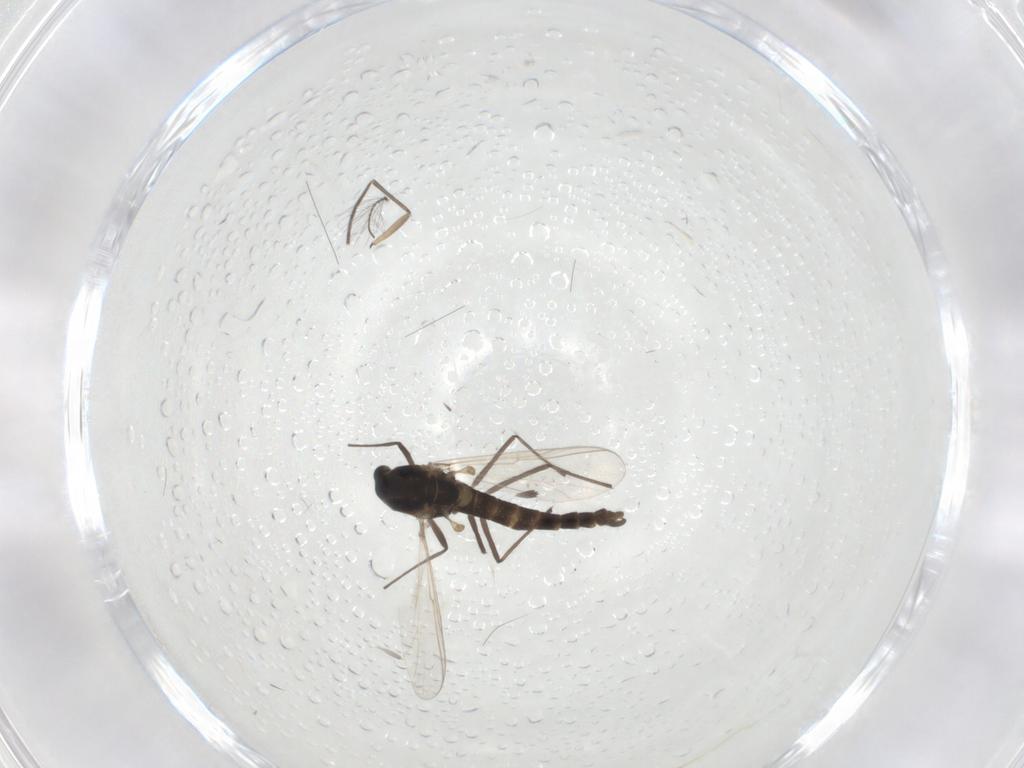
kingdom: Animalia
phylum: Arthropoda
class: Insecta
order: Diptera
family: Chironomidae
